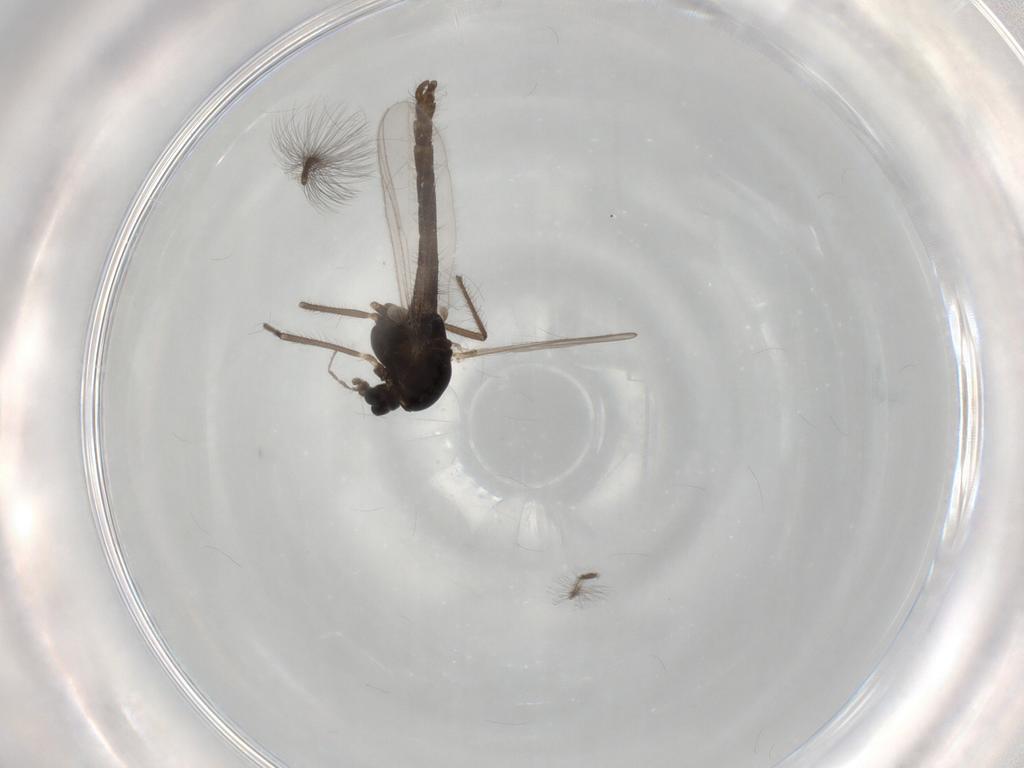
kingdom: Animalia
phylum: Arthropoda
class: Insecta
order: Diptera
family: Chironomidae
